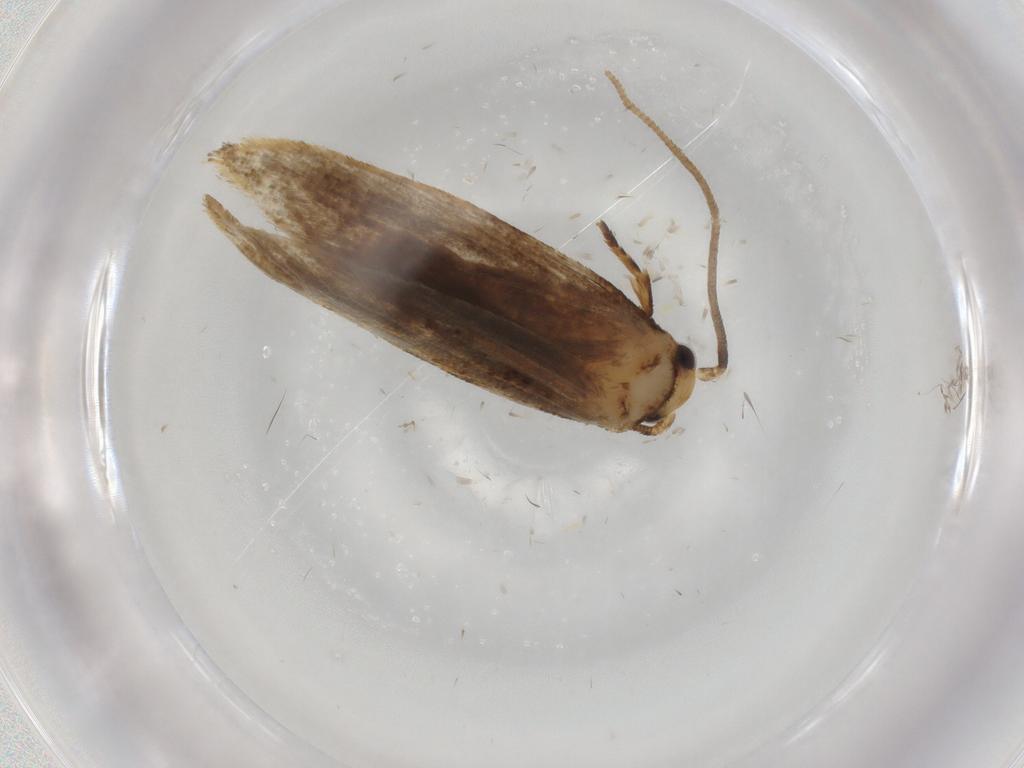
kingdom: Animalia
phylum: Arthropoda
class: Insecta
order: Lepidoptera
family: Tineidae
